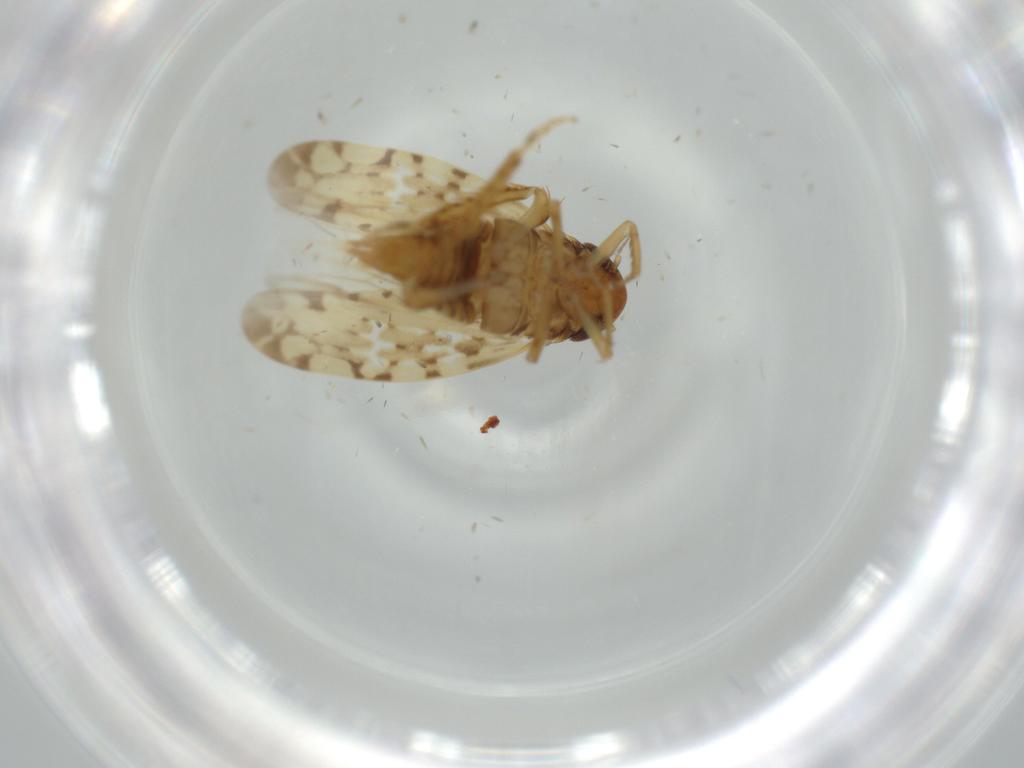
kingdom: Animalia
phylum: Arthropoda
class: Insecta
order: Hemiptera
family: Cicadellidae
